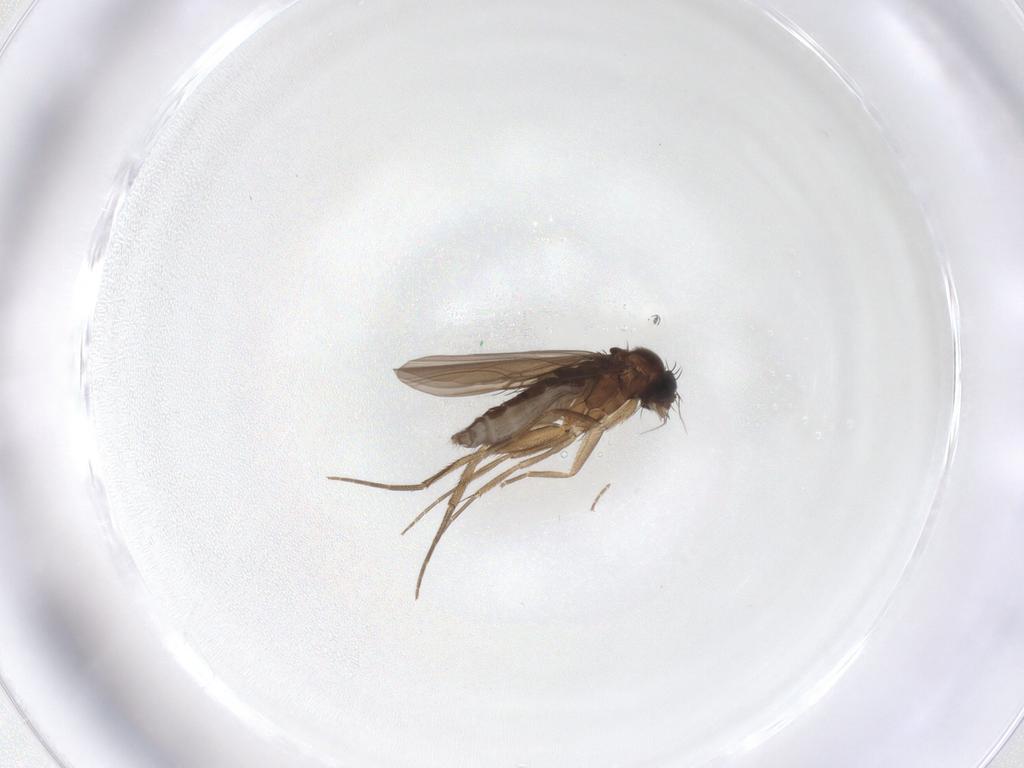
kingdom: Animalia
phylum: Arthropoda
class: Insecta
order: Diptera
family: Phoridae
